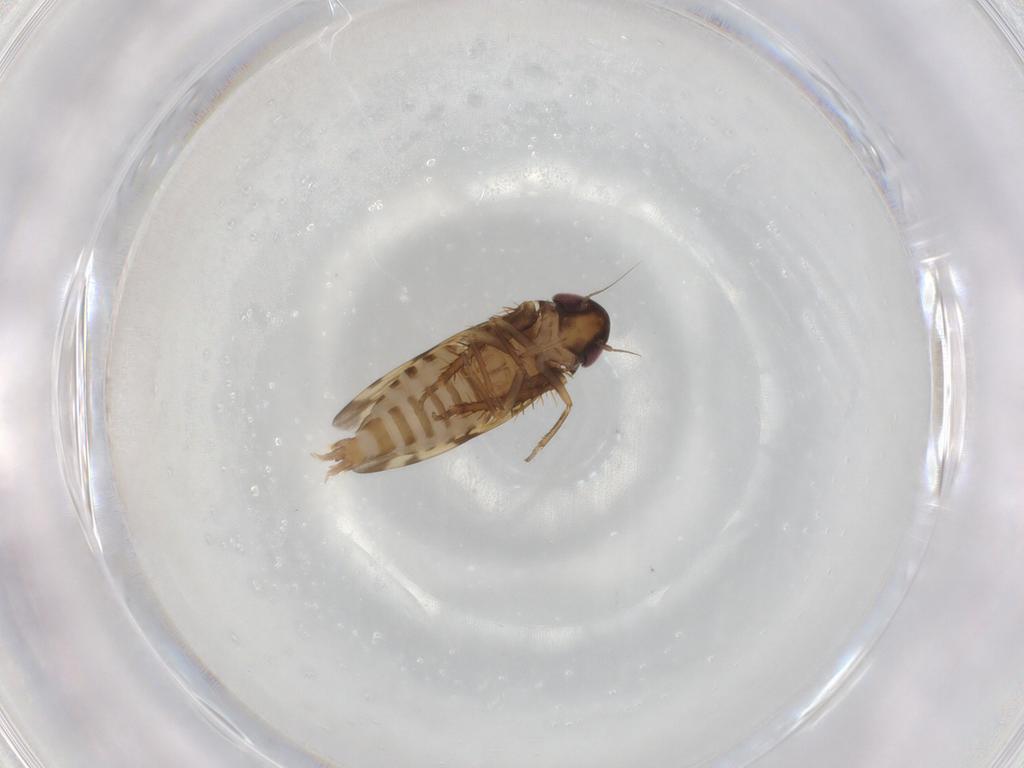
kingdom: Animalia
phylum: Arthropoda
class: Insecta
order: Hemiptera
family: Cicadellidae
